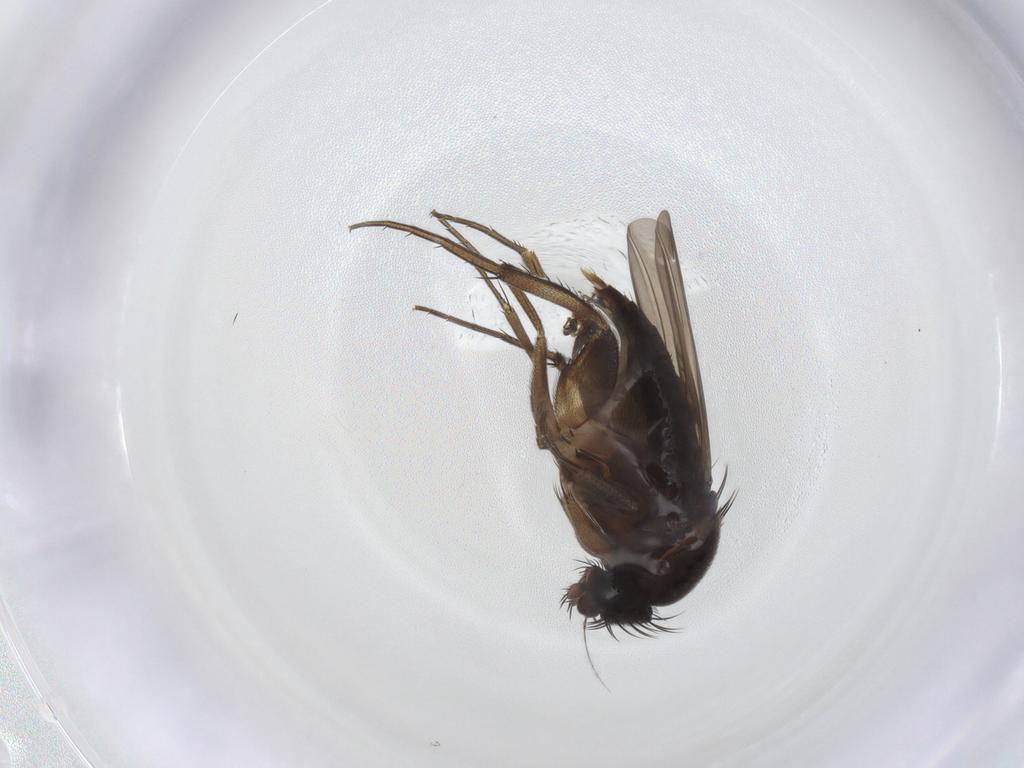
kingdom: Animalia
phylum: Arthropoda
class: Insecta
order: Diptera
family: Phoridae
